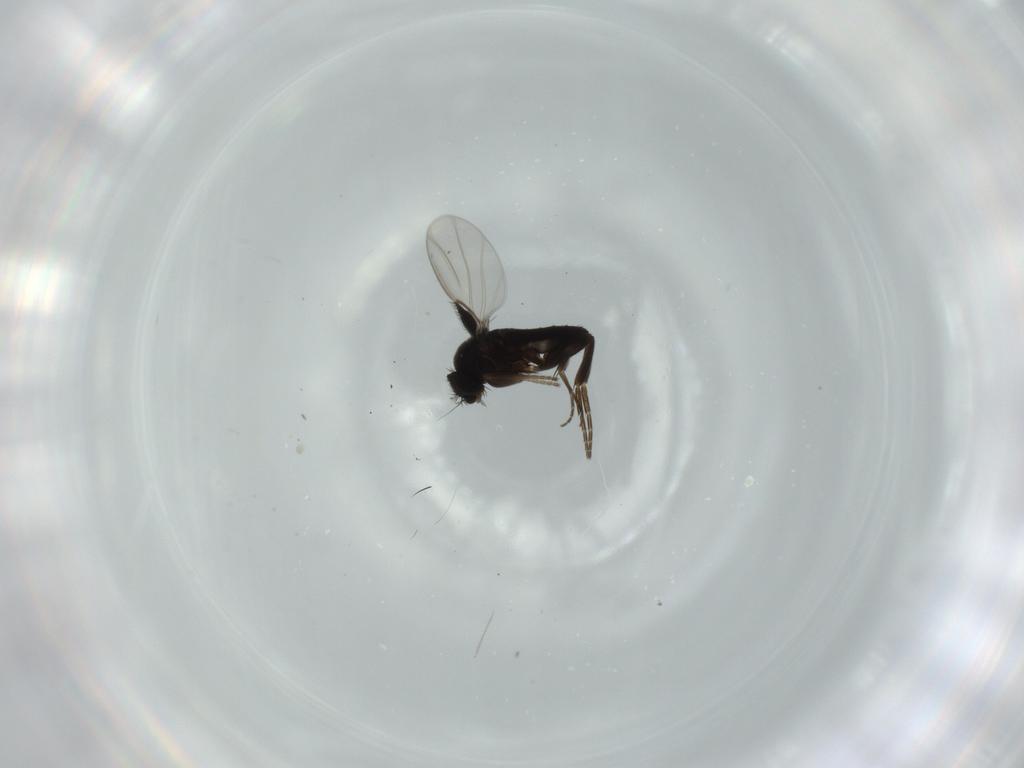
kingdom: Animalia
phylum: Arthropoda
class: Insecta
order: Diptera
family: Phoridae
